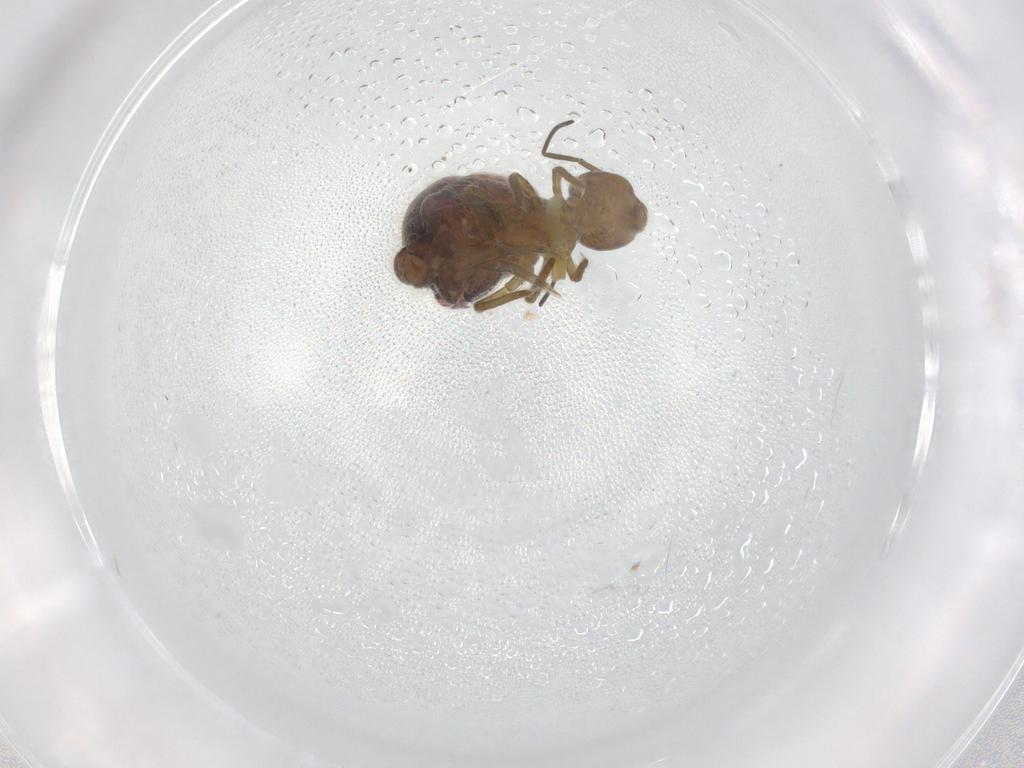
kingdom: Animalia
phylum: Arthropoda
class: Collembola
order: Symphypleona
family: Sminthuridae
